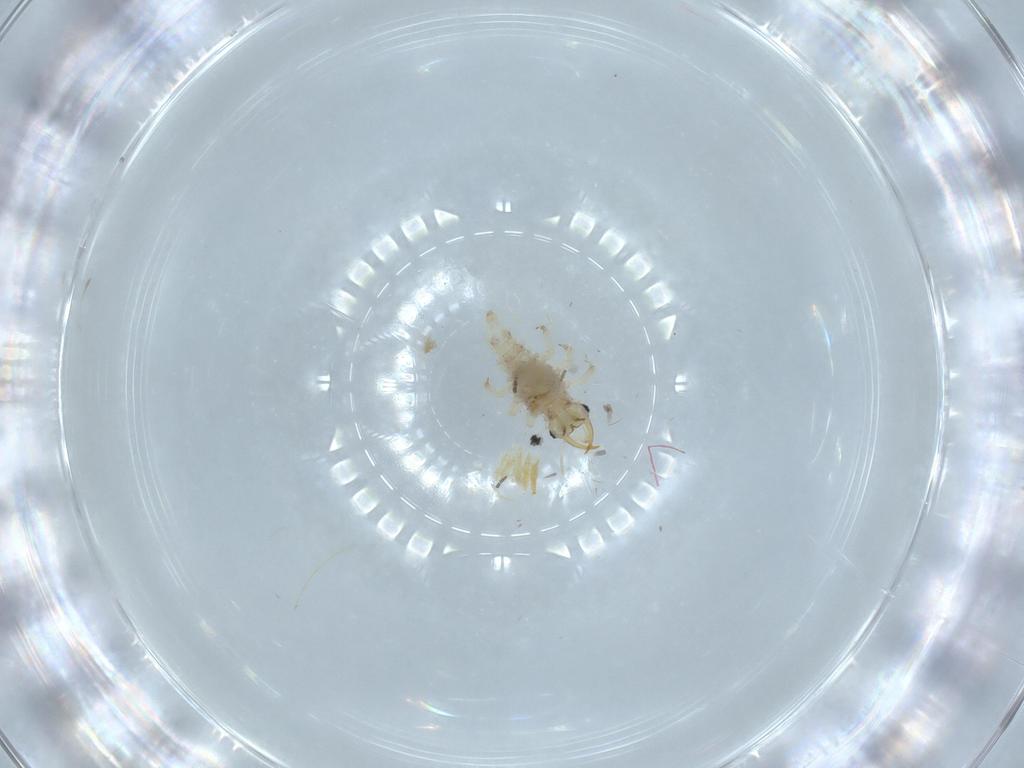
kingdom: Animalia
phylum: Arthropoda
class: Insecta
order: Neuroptera
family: Chrysopidae
